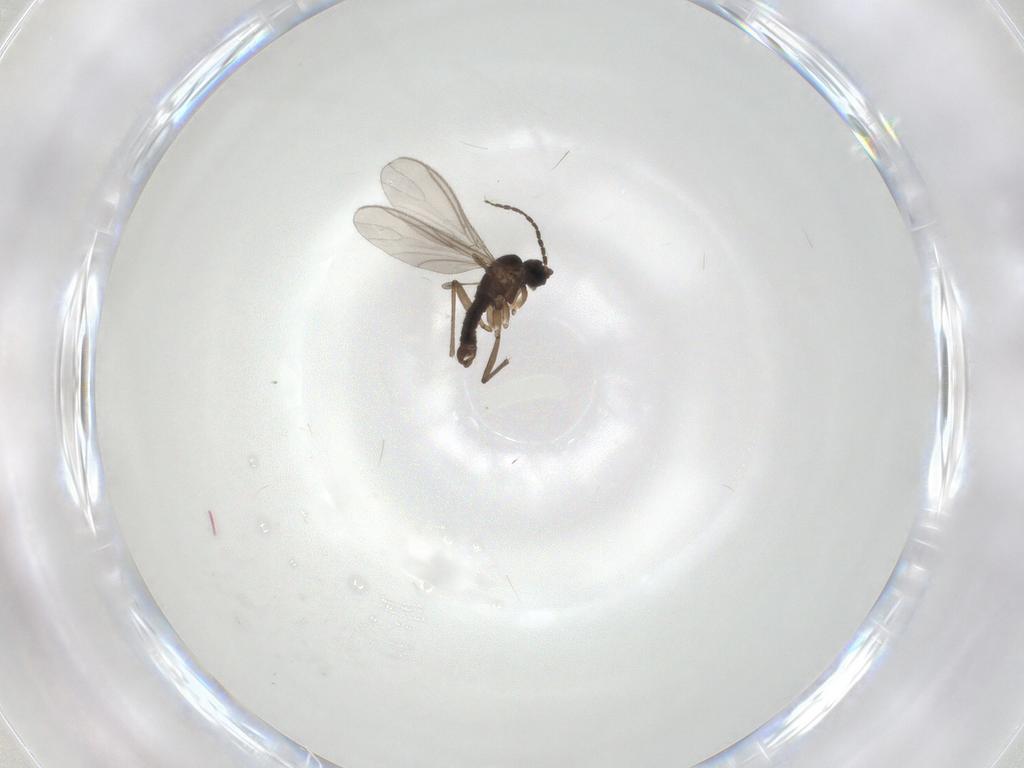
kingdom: Animalia
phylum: Arthropoda
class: Insecta
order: Diptera
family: Sciaridae
